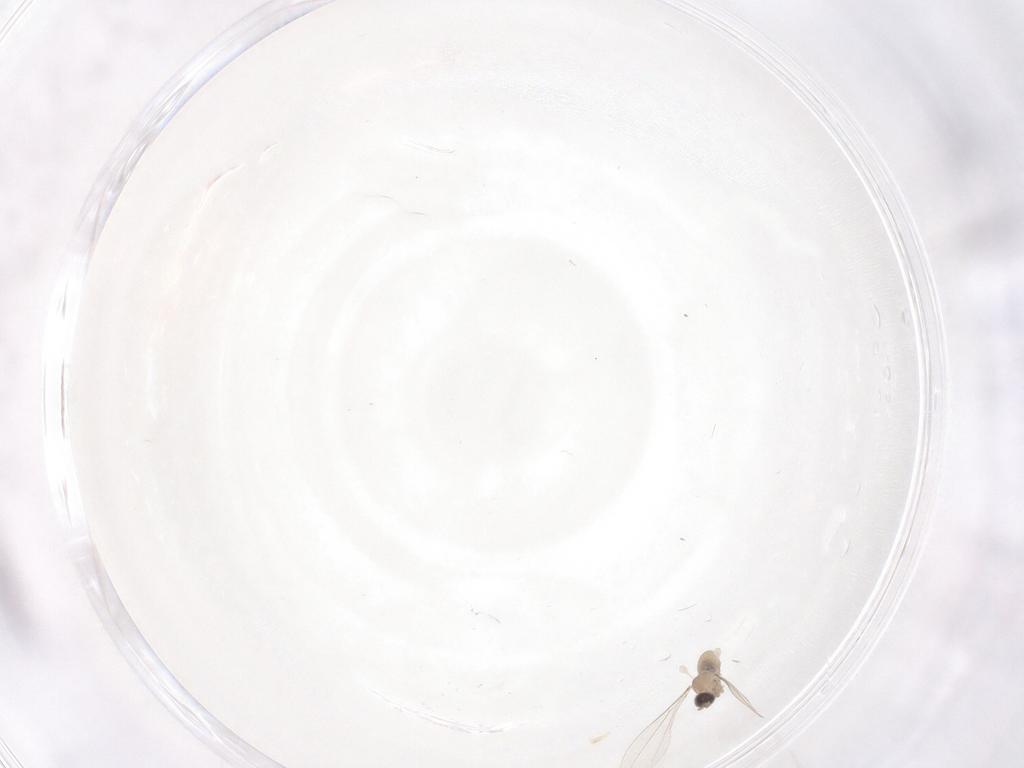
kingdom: Animalia
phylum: Arthropoda
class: Insecta
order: Diptera
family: Cecidomyiidae
